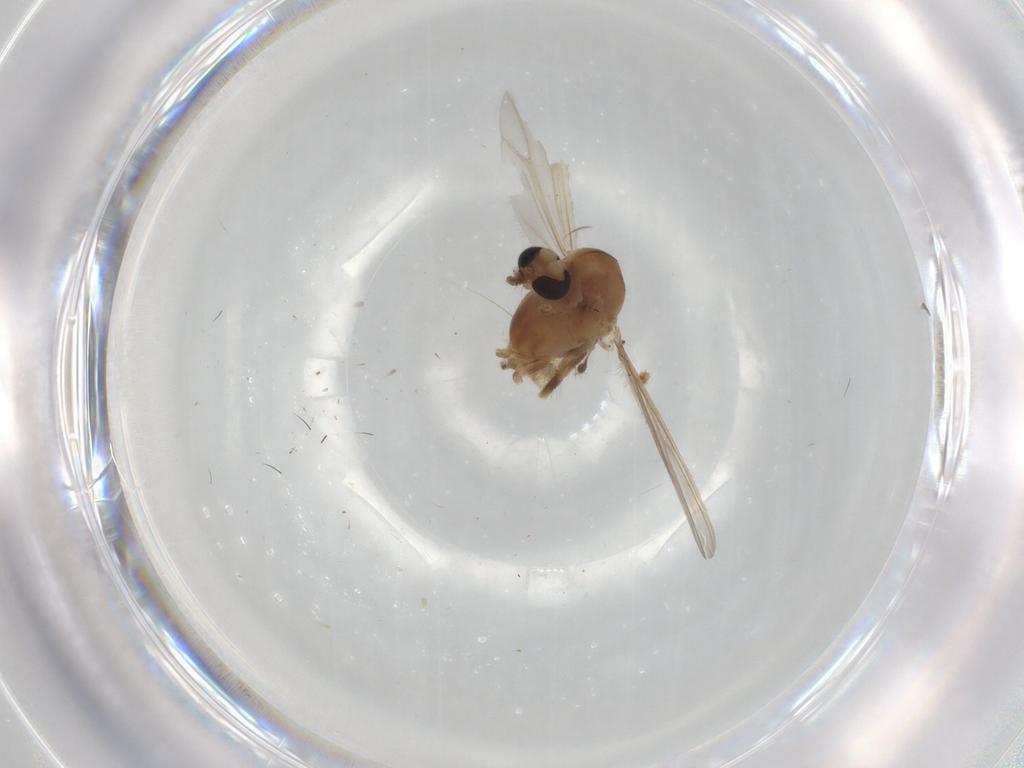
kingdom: Animalia
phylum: Arthropoda
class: Insecta
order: Diptera
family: Chironomidae
